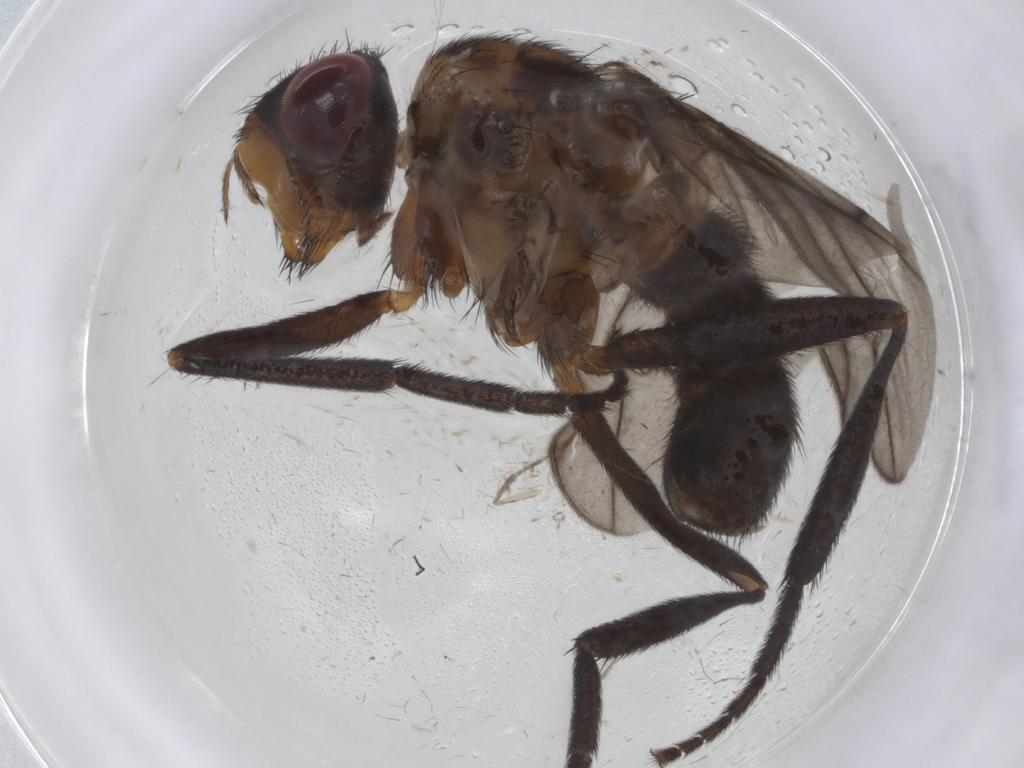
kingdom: Animalia
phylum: Arthropoda
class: Insecta
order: Diptera
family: Calliphoridae
